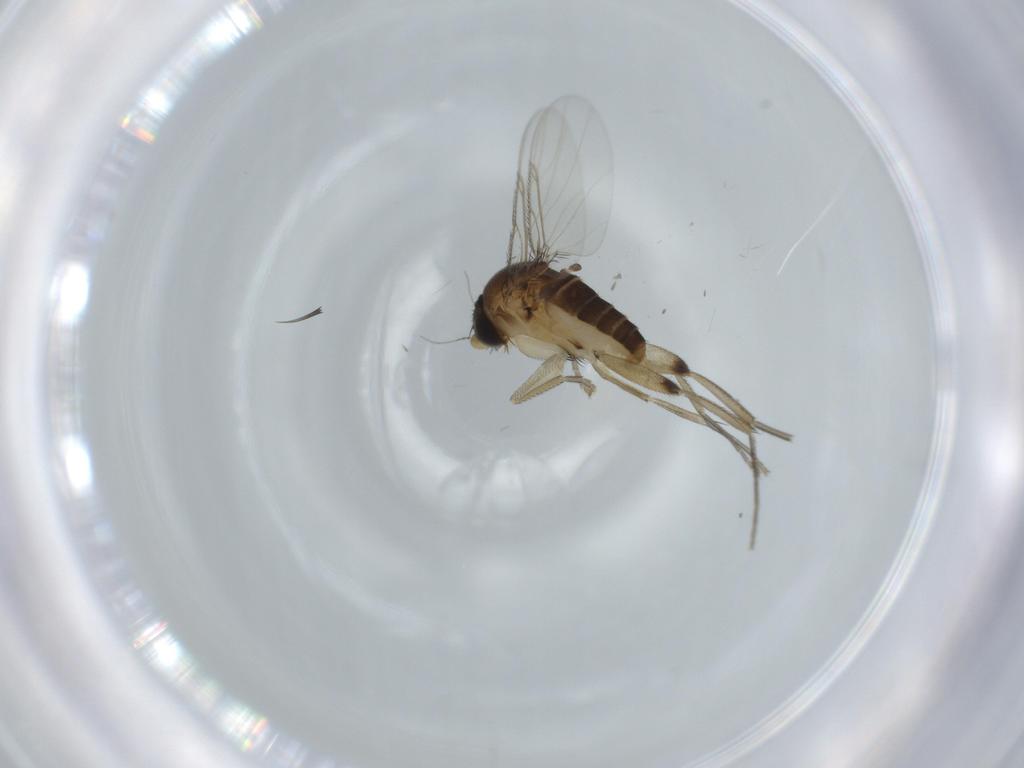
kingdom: Animalia
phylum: Arthropoda
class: Insecta
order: Diptera
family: Phoridae
